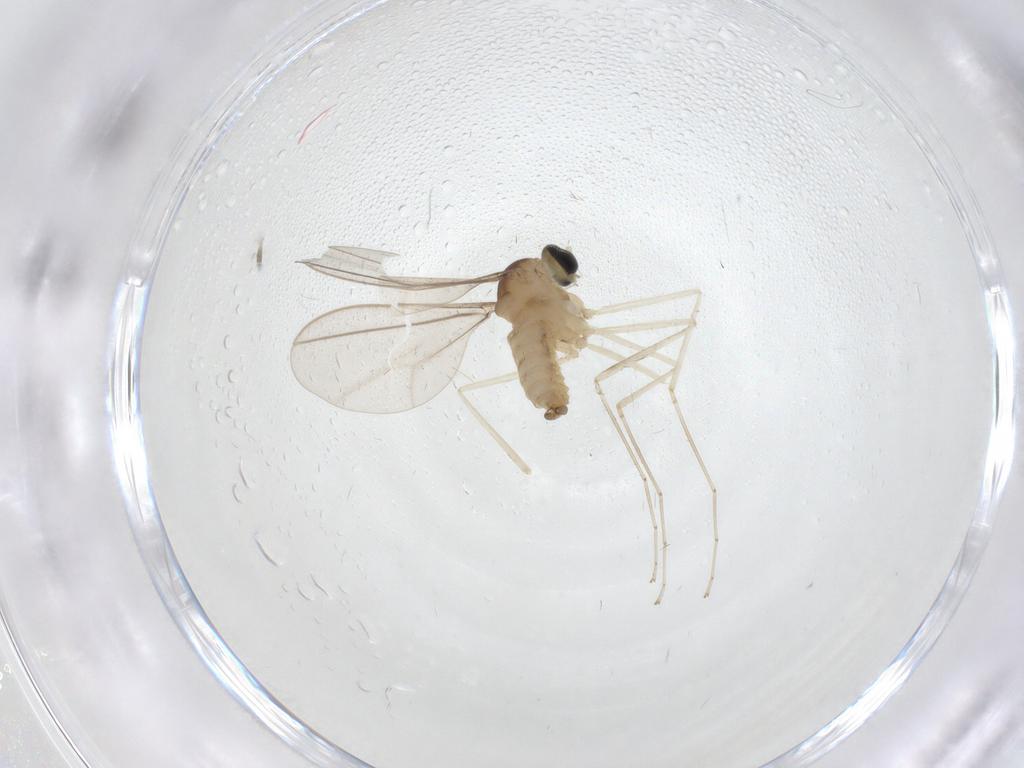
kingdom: Animalia
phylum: Arthropoda
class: Insecta
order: Diptera
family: Cecidomyiidae
